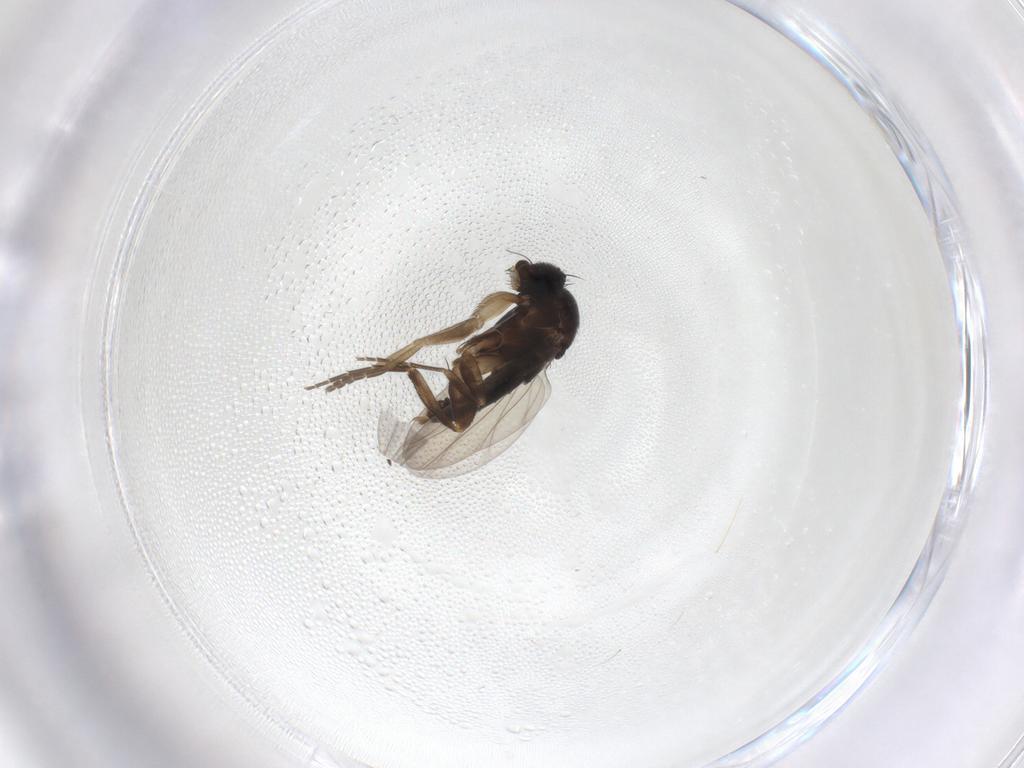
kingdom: Animalia
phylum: Arthropoda
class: Insecta
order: Diptera
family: Phoridae
